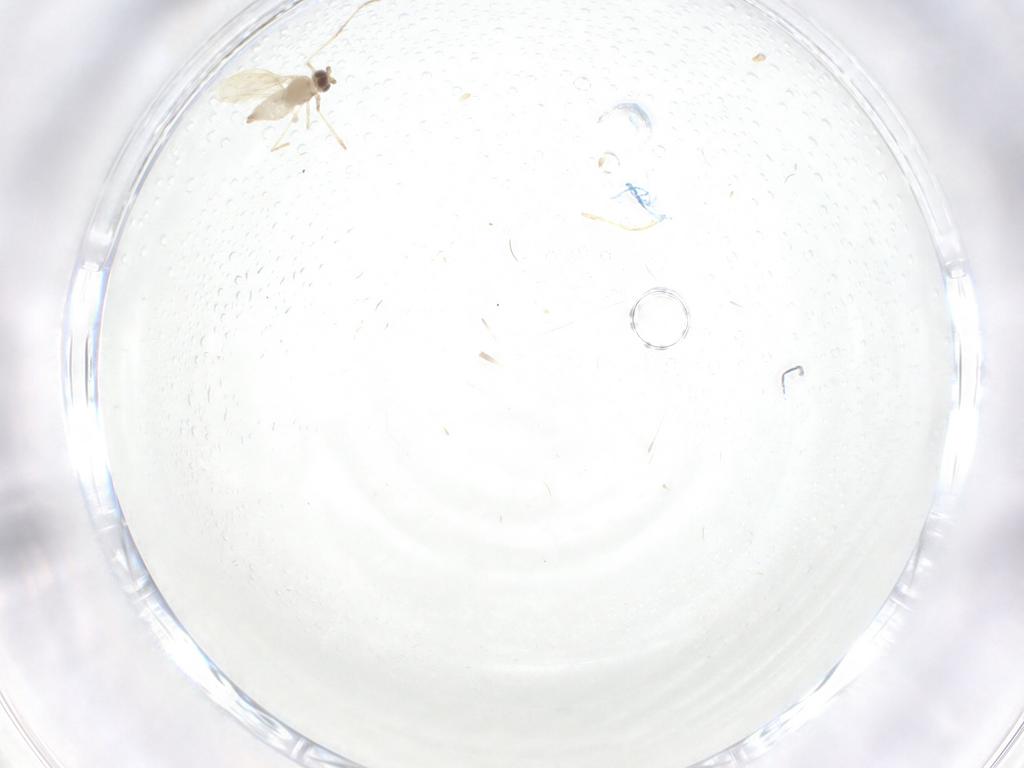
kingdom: Animalia
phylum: Arthropoda
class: Insecta
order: Diptera
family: Cecidomyiidae
